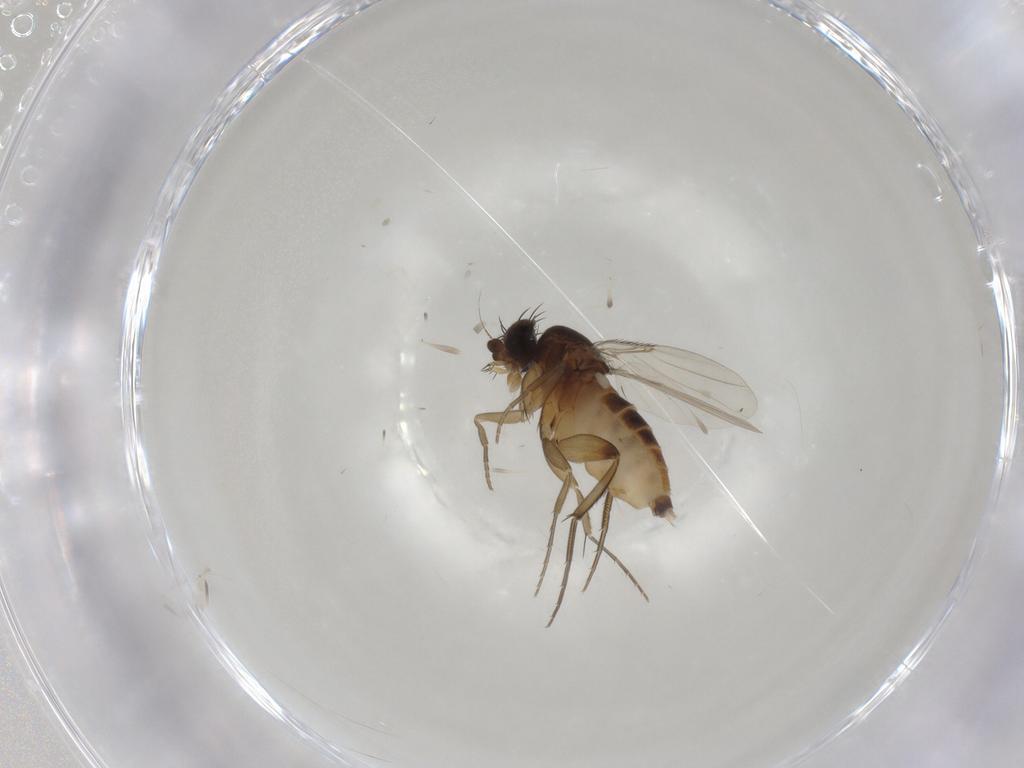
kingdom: Animalia
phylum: Arthropoda
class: Insecta
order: Diptera
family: Phoridae
